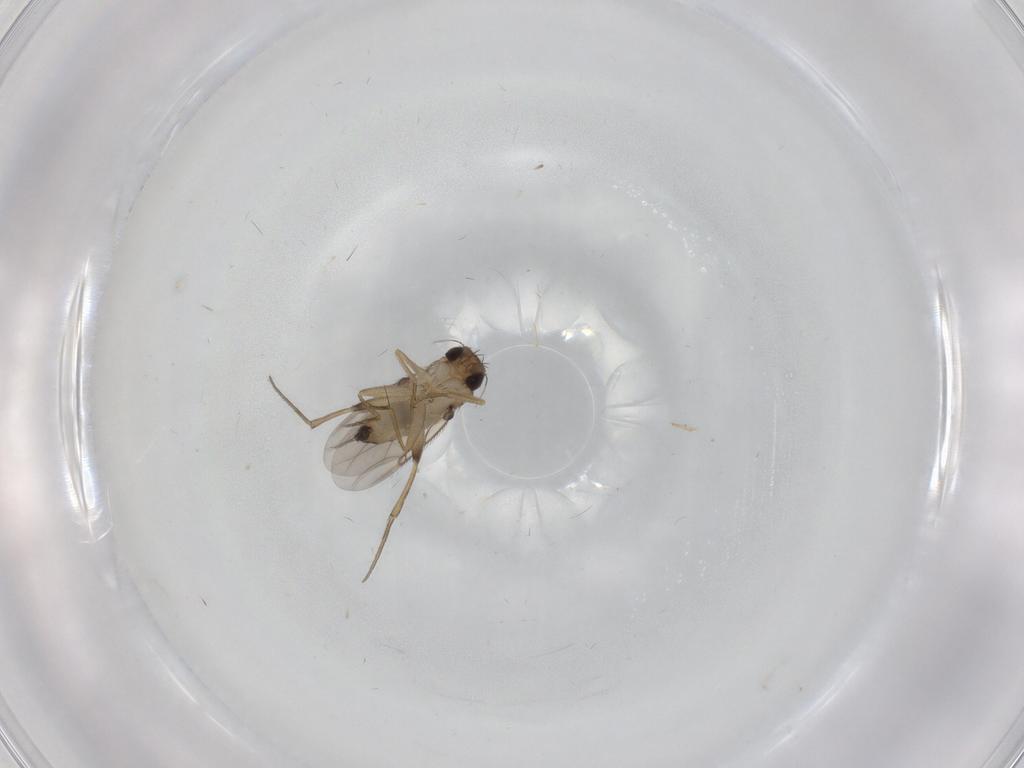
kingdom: Animalia
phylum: Arthropoda
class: Insecta
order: Diptera
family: Phoridae
